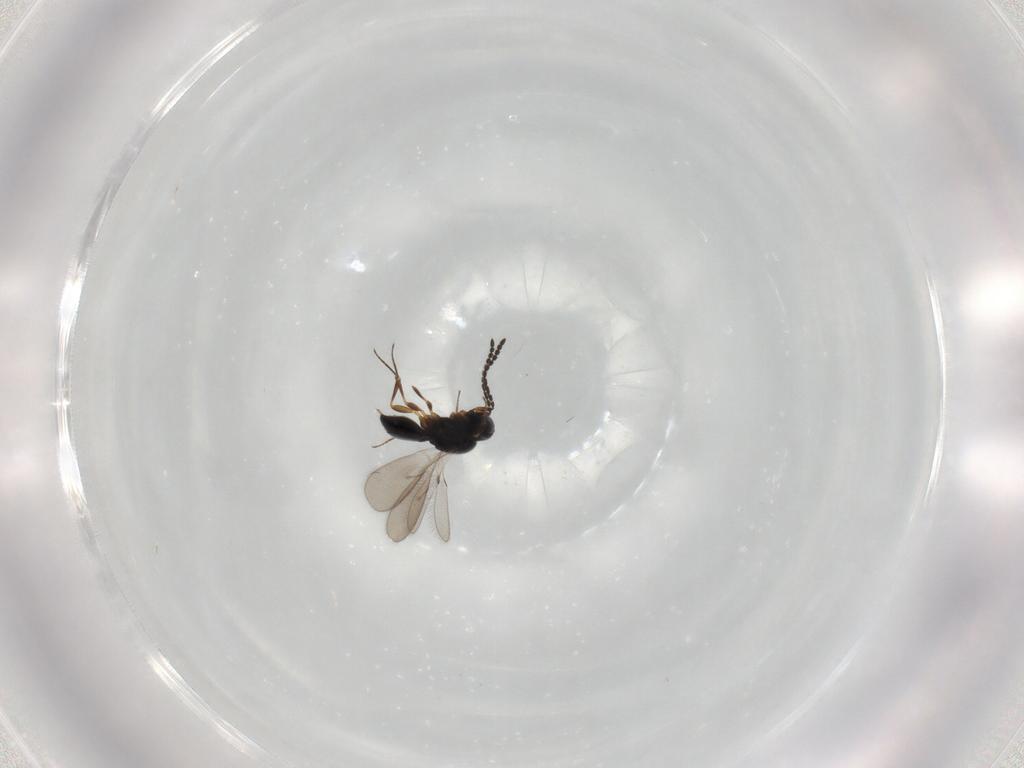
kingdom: Animalia
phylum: Arthropoda
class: Insecta
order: Hymenoptera
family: Scelionidae
